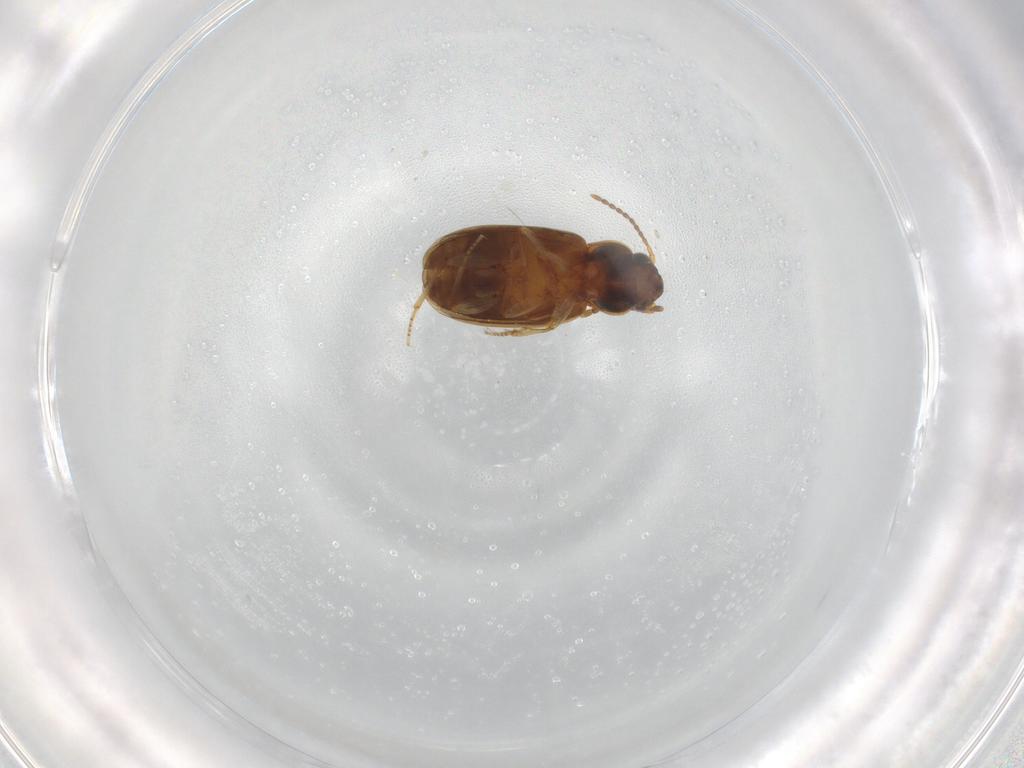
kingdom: Animalia
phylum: Arthropoda
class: Insecta
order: Coleoptera
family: Carabidae
